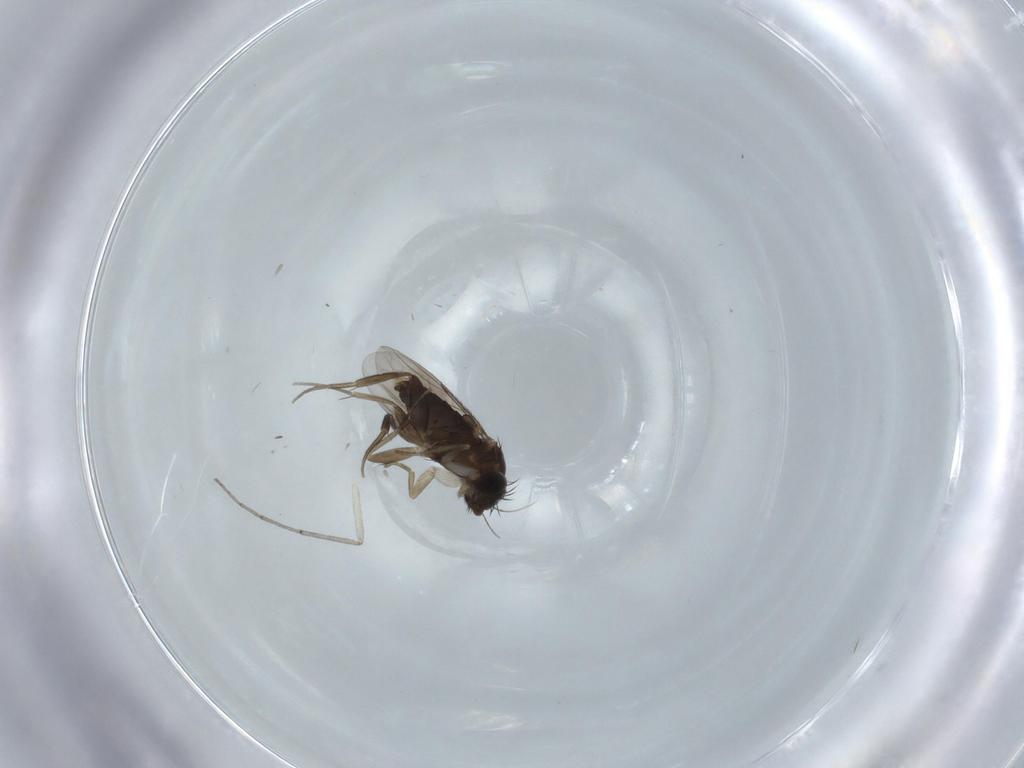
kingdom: Animalia
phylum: Arthropoda
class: Insecta
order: Diptera
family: Phoridae
